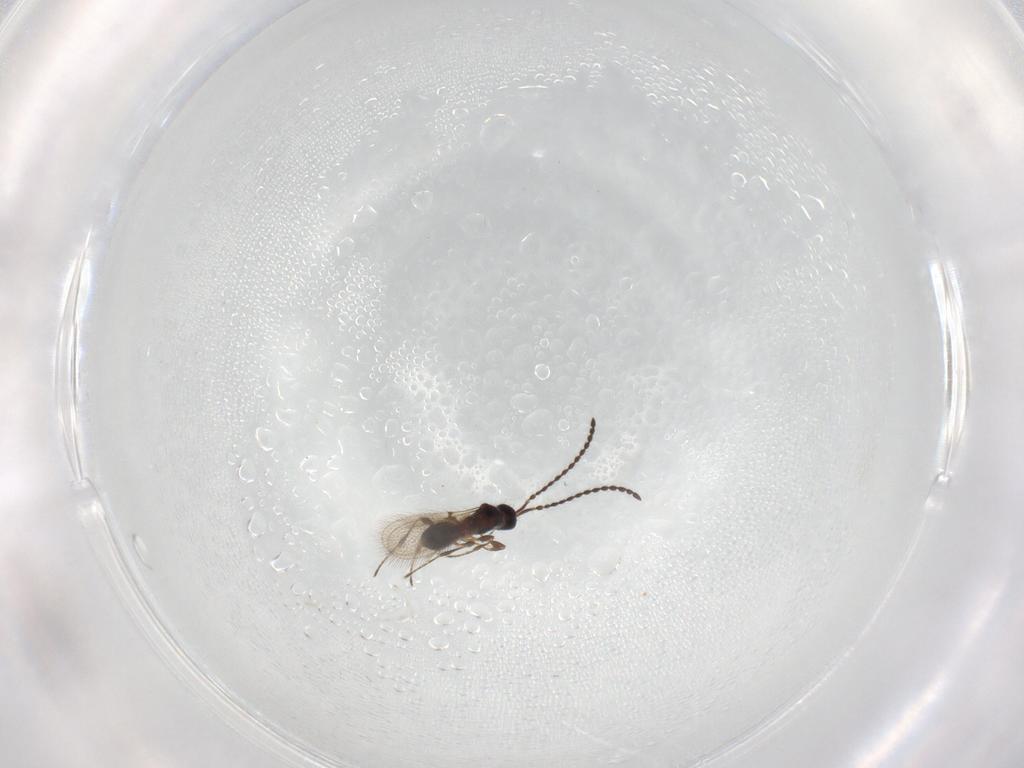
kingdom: Animalia
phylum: Arthropoda
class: Insecta
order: Hymenoptera
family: Diapriidae
